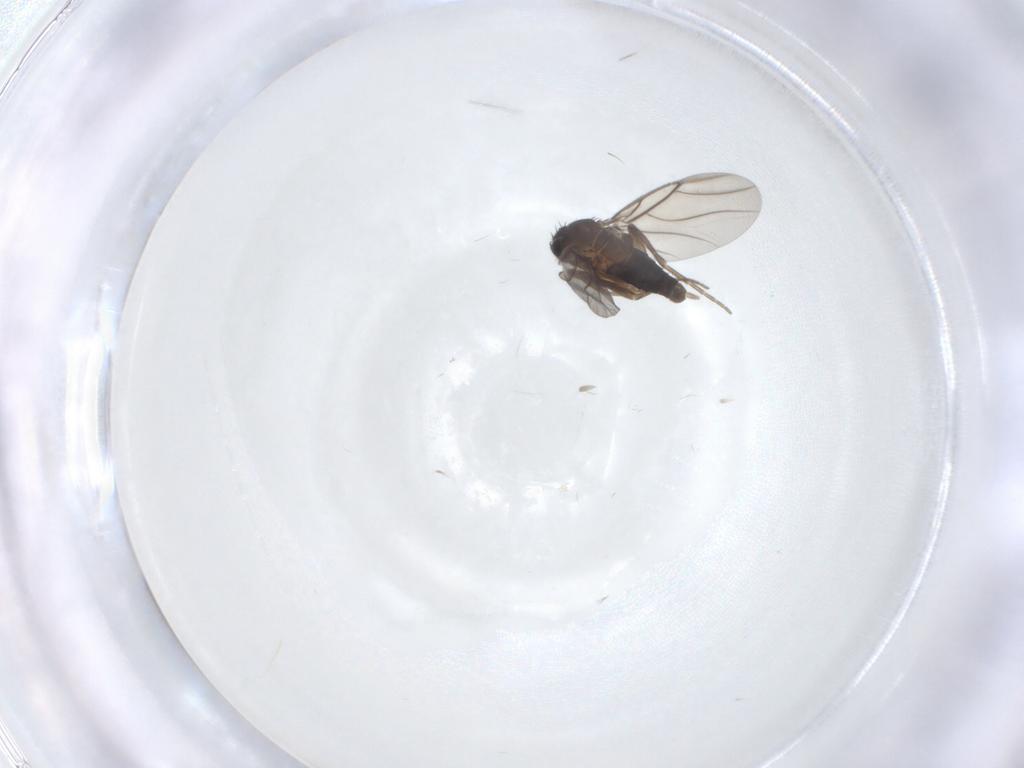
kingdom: Animalia
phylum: Arthropoda
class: Insecta
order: Diptera
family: Phoridae
